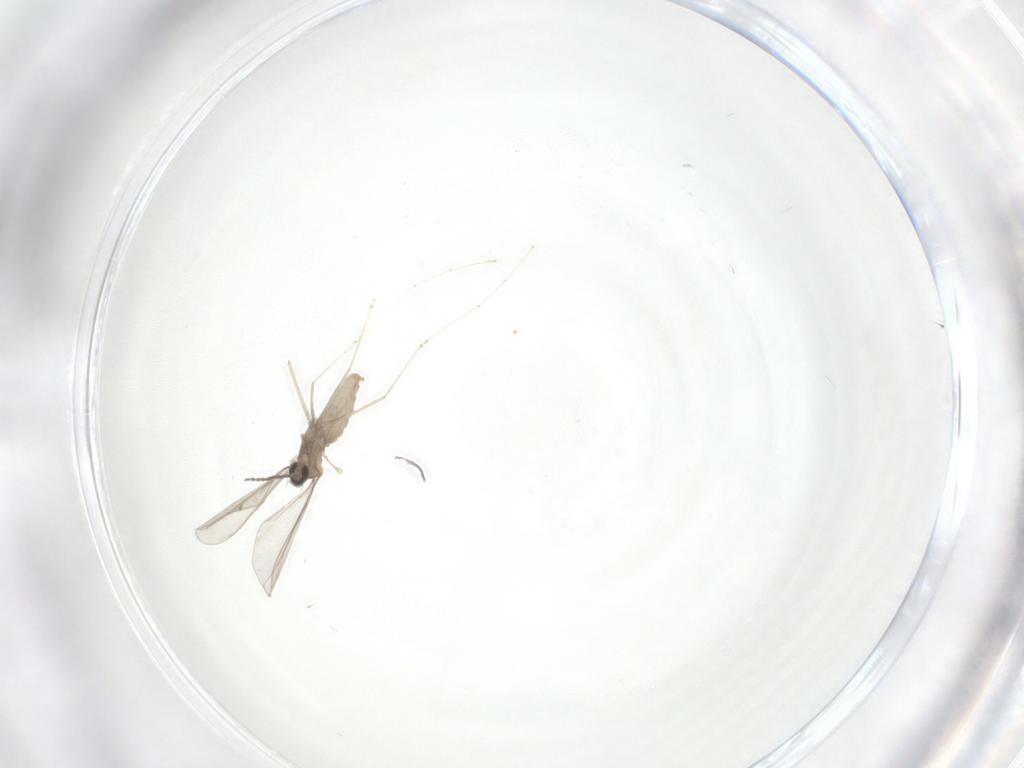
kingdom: Animalia
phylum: Arthropoda
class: Insecta
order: Diptera
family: Ceratopogonidae
